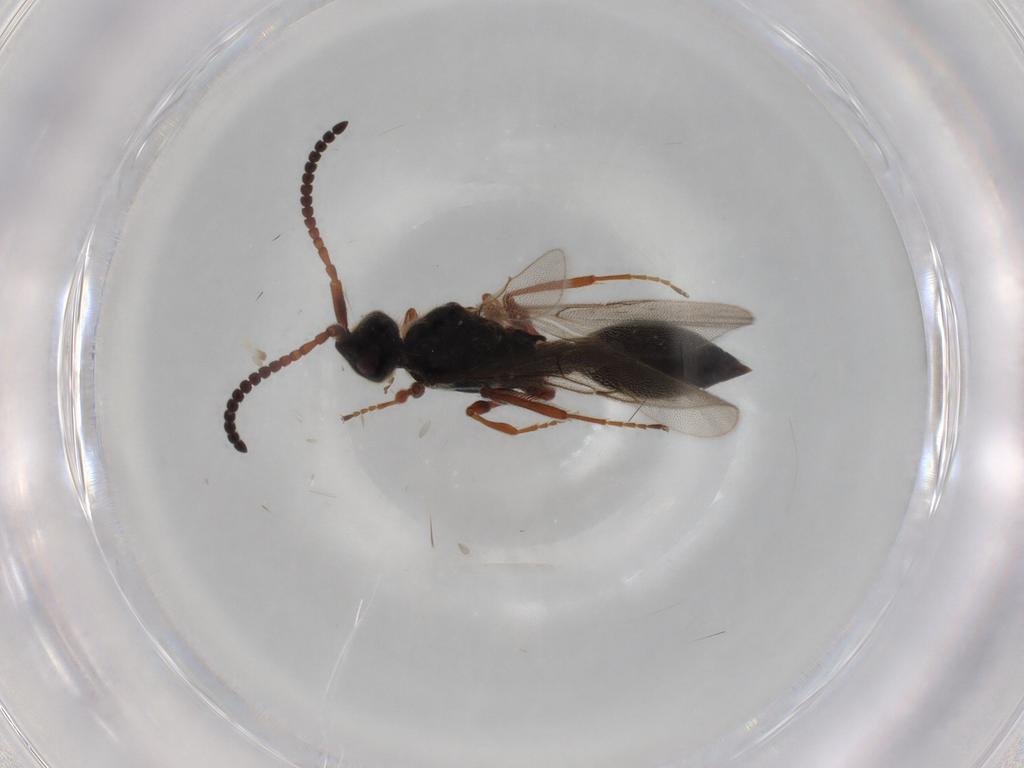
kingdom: Animalia
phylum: Arthropoda
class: Insecta
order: Hymenoptera
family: Diapriidae
